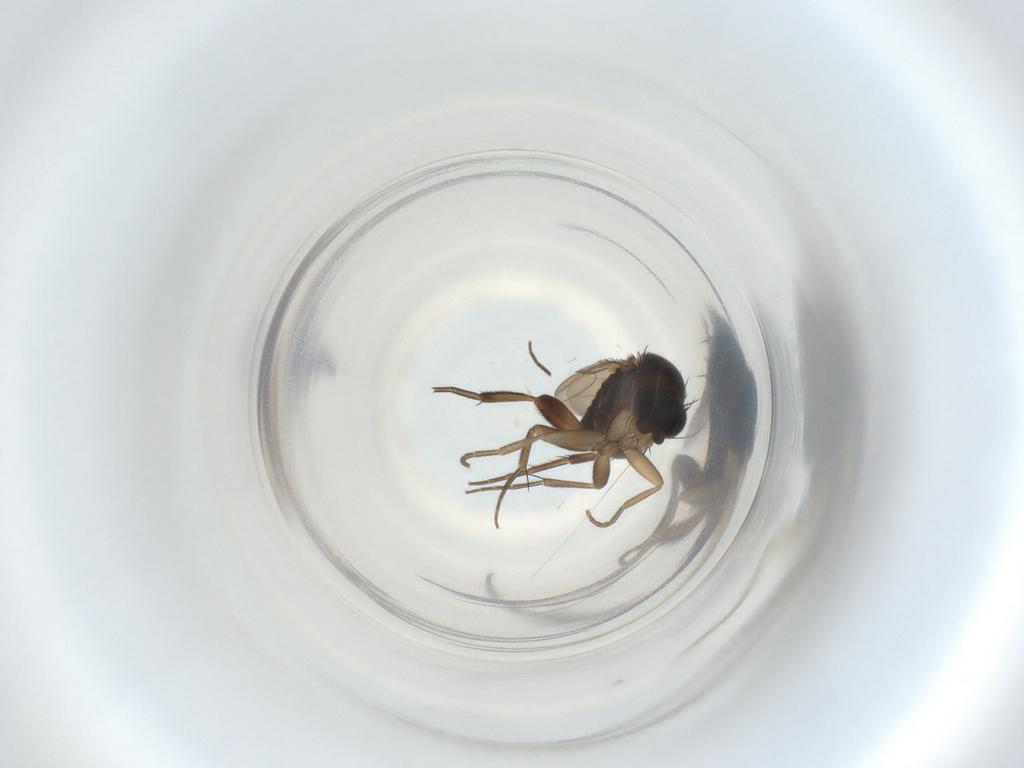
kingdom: Animalia
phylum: Arthropoda
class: Insecta
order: Diptera
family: Phoridae
